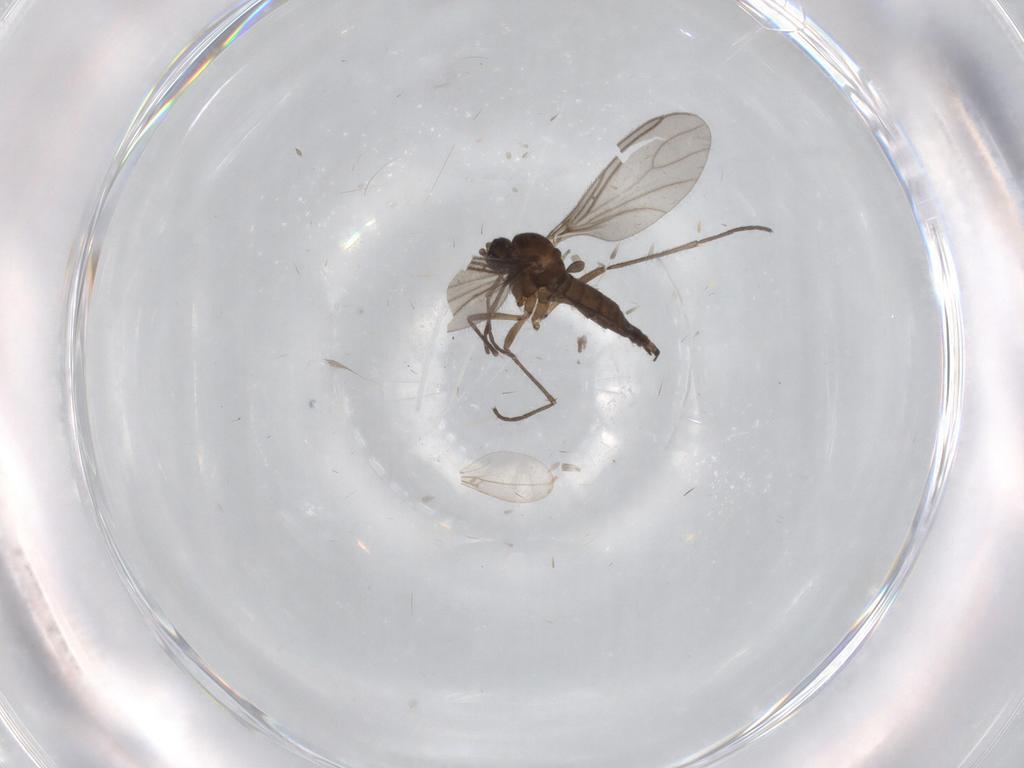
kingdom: Animalia
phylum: Arthropoda
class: Insecta
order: Diptera
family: Sciaridae
